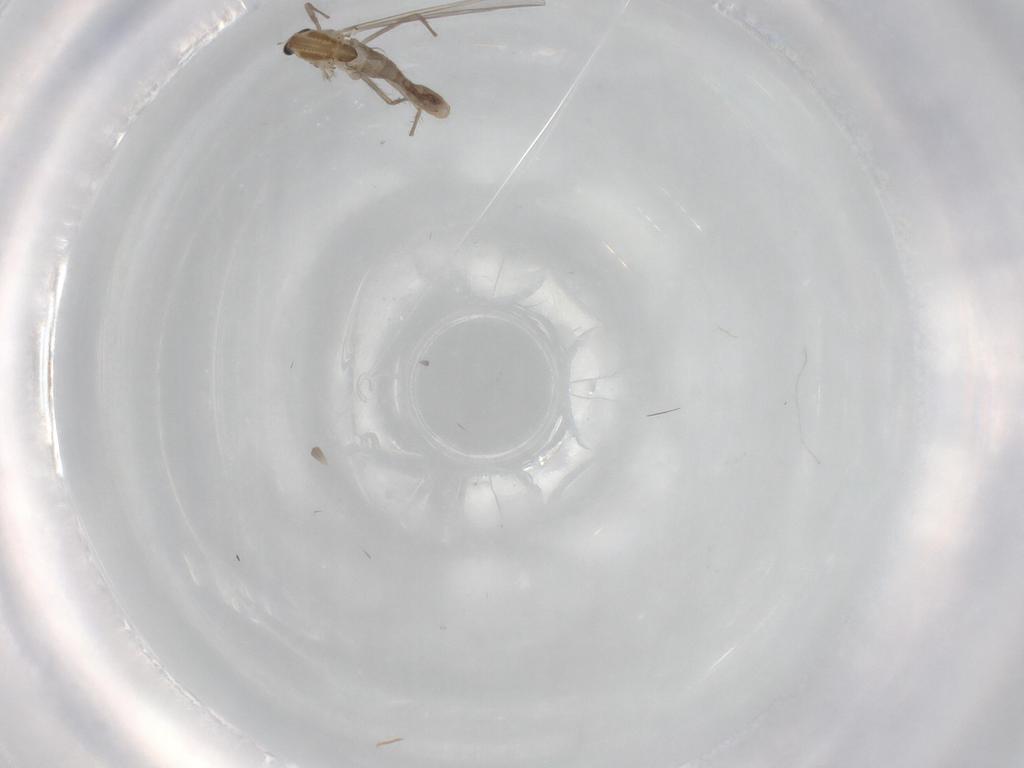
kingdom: Animalia
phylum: Arthropoda
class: Insecta
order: Diptera
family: Chironomidae
